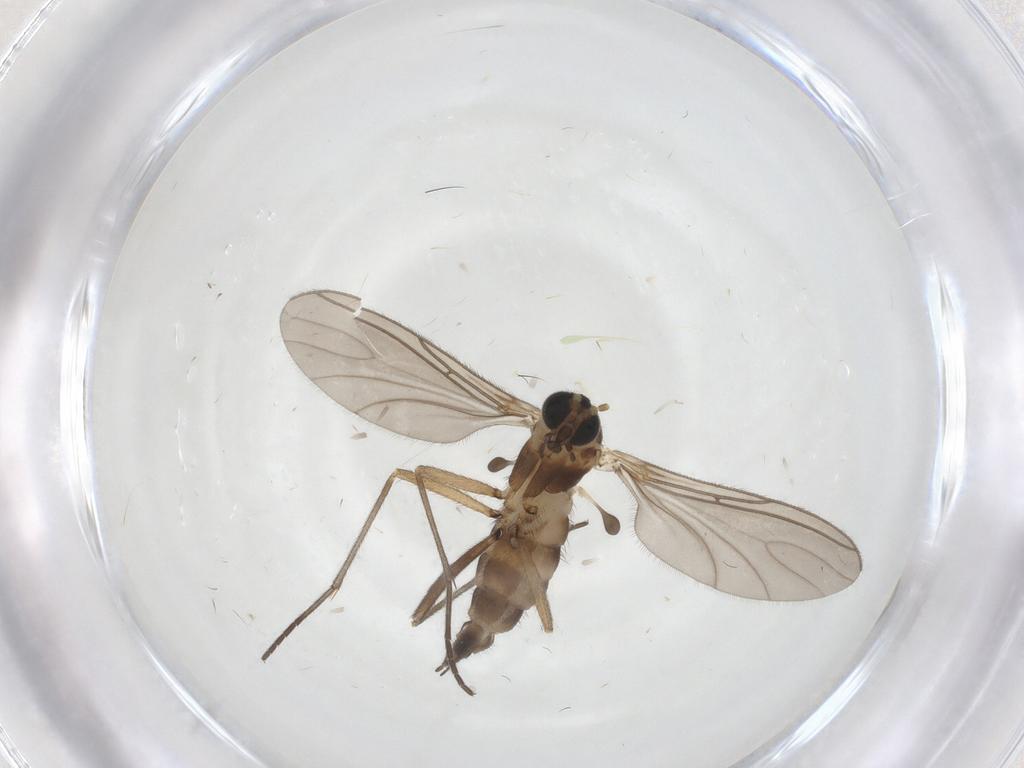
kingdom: Animalia
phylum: Arthropoda
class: Insecta
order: Diptera
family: Sciaridae
